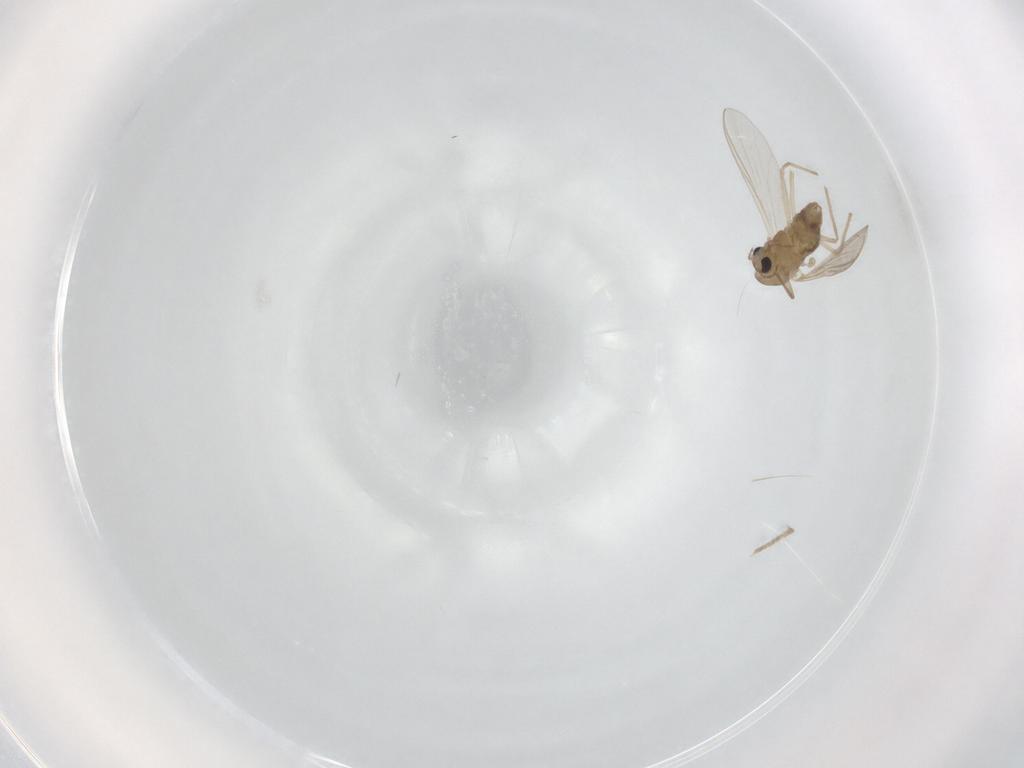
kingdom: Animalia
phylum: Arthropoda
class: Insecta
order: Diptera
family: Chironomidae
